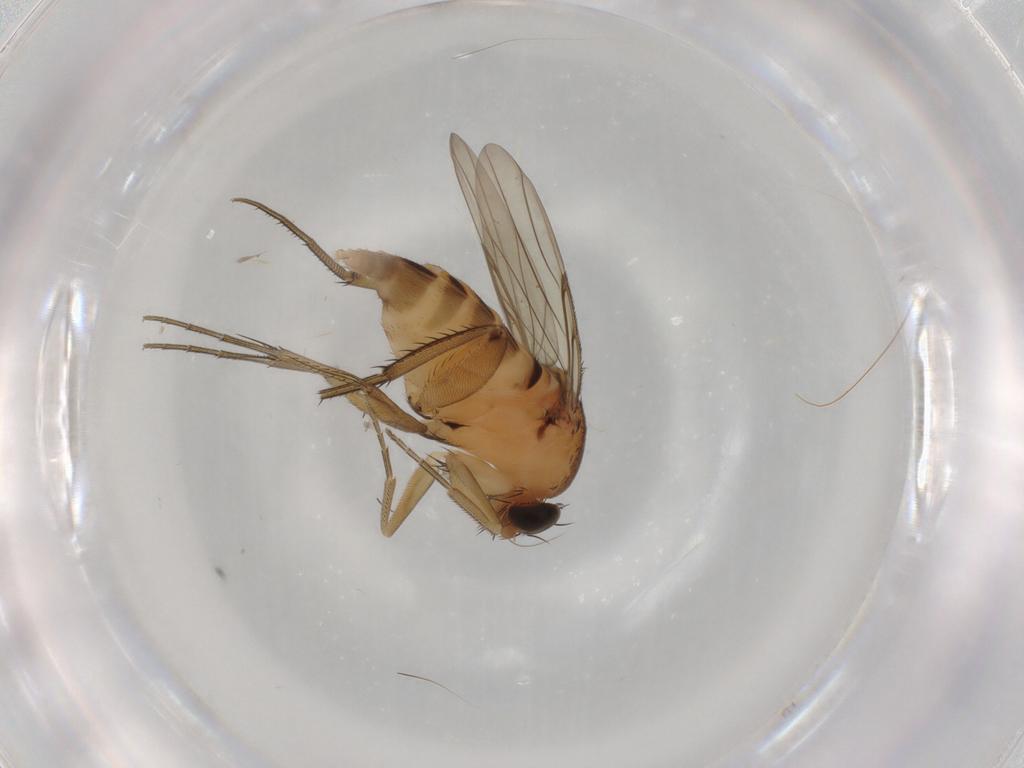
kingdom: Animalia
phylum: Arthropoda
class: Insecta
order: Diptera
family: Phoridae
